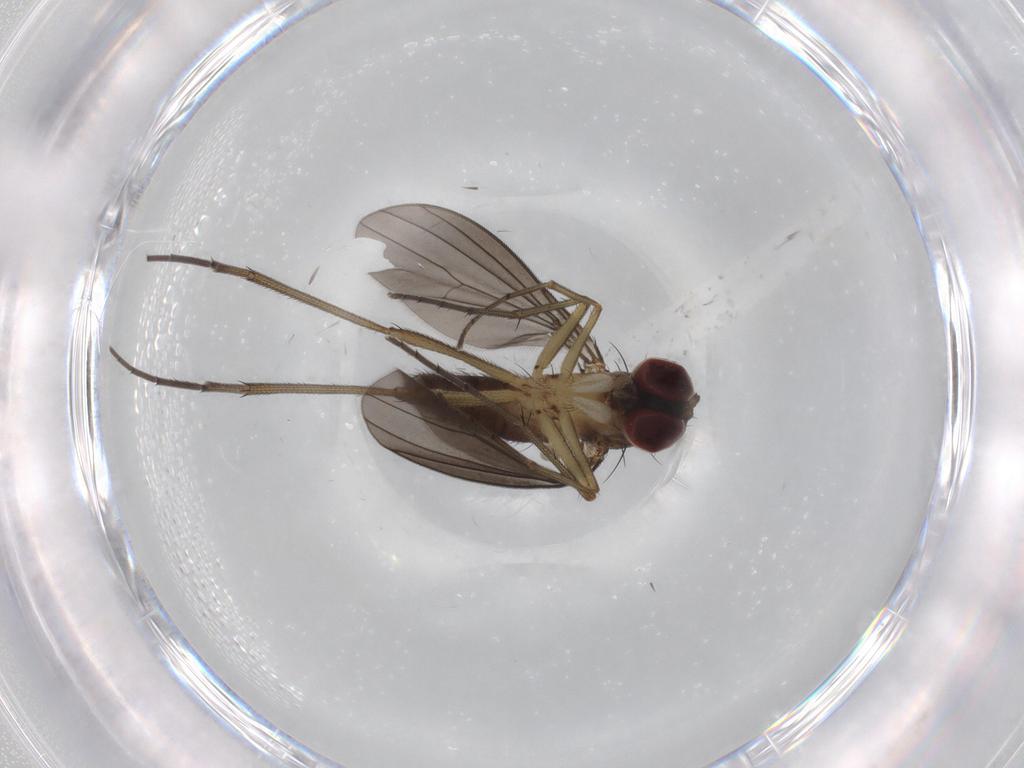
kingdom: Animalia
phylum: Arthropoda
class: Insecta
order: Diptera
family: Dolichopodidae
